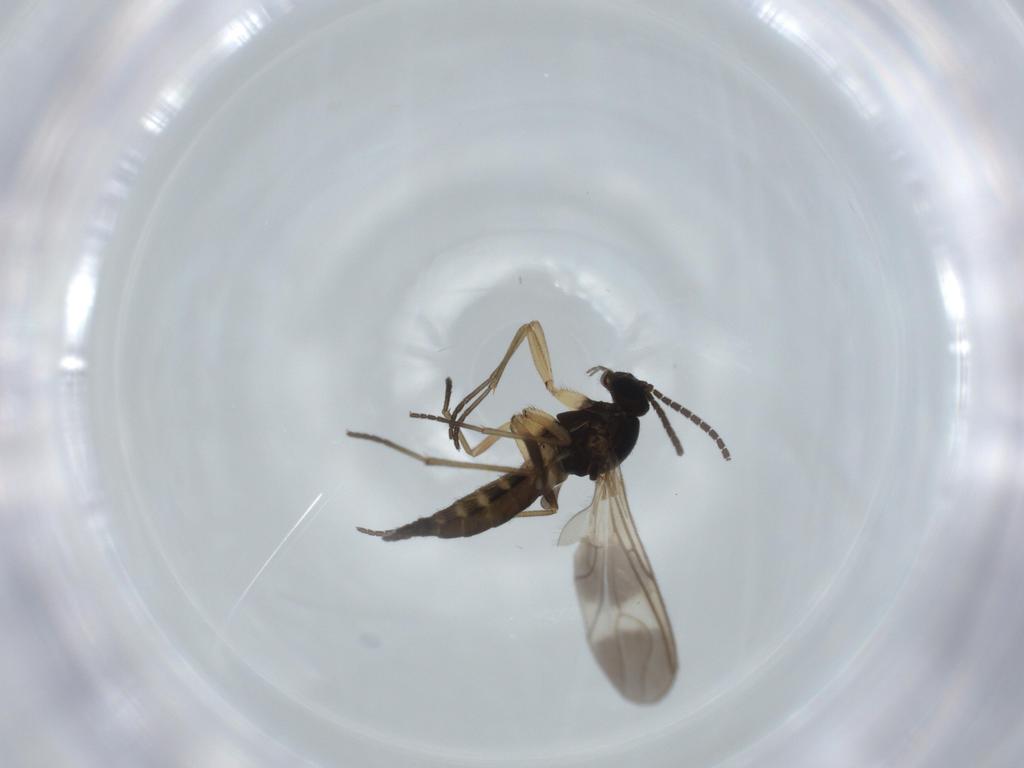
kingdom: Animalia
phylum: Arthropoda
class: Insecta
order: Diptera
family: Sciaridae
